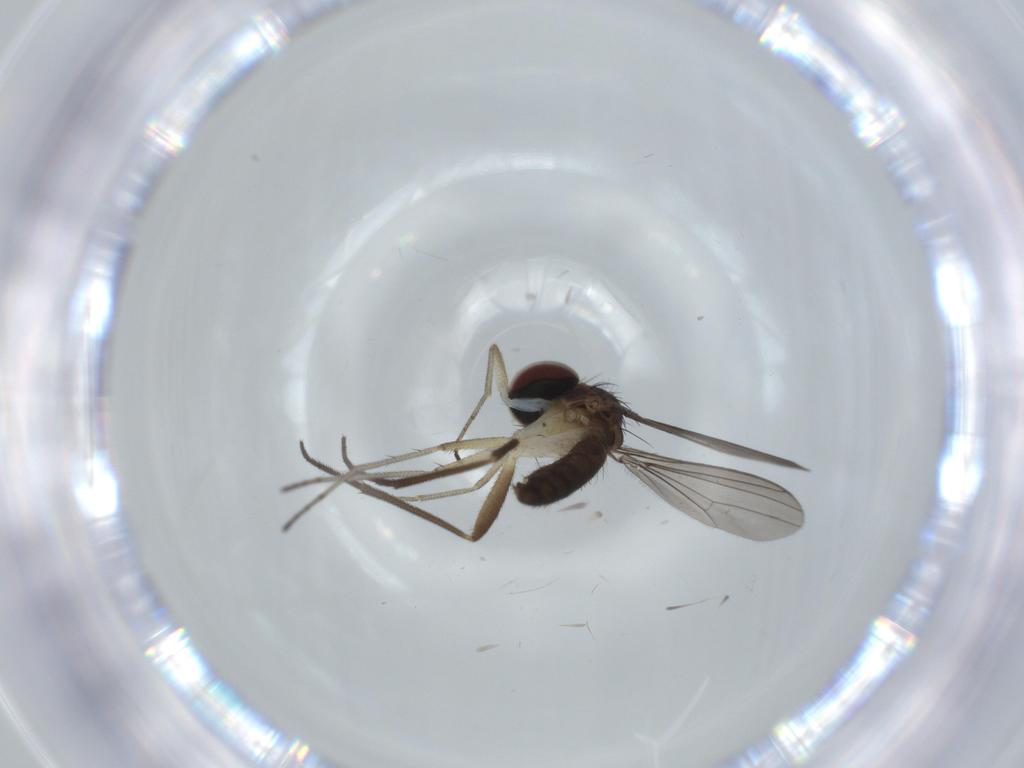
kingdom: Animalia
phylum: Arthropoda
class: Insecta
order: Diptera
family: Dolichopodidae
